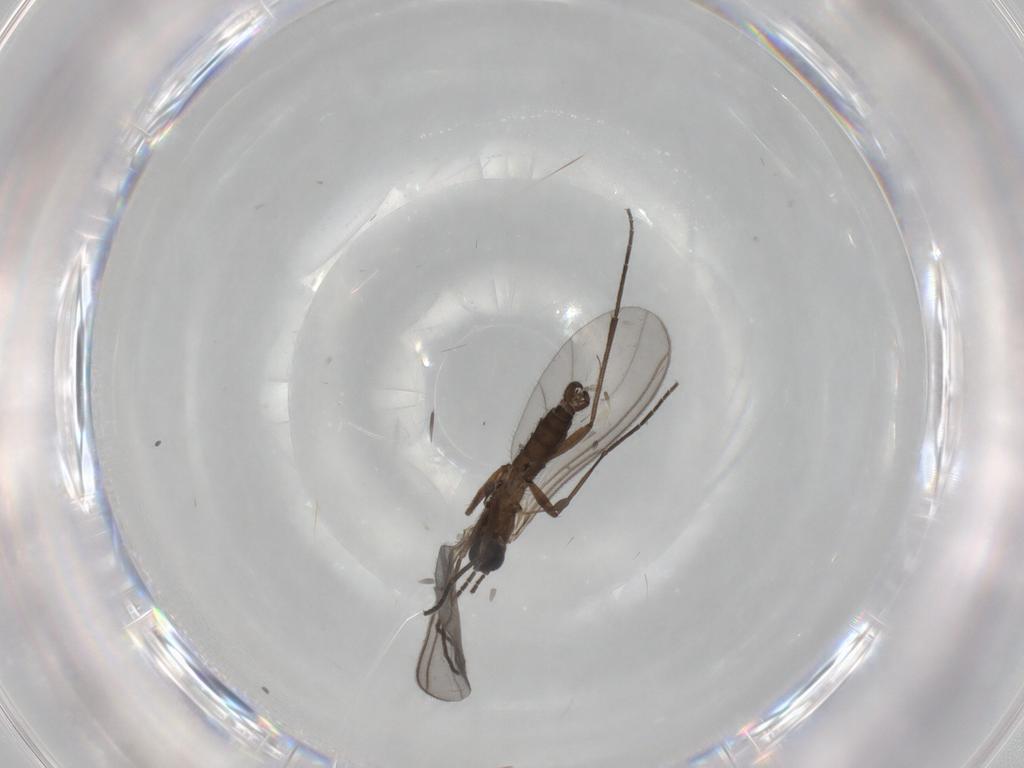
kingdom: Animalia
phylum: Arthropoda
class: Insecta
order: Diptera
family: Sciaridae
